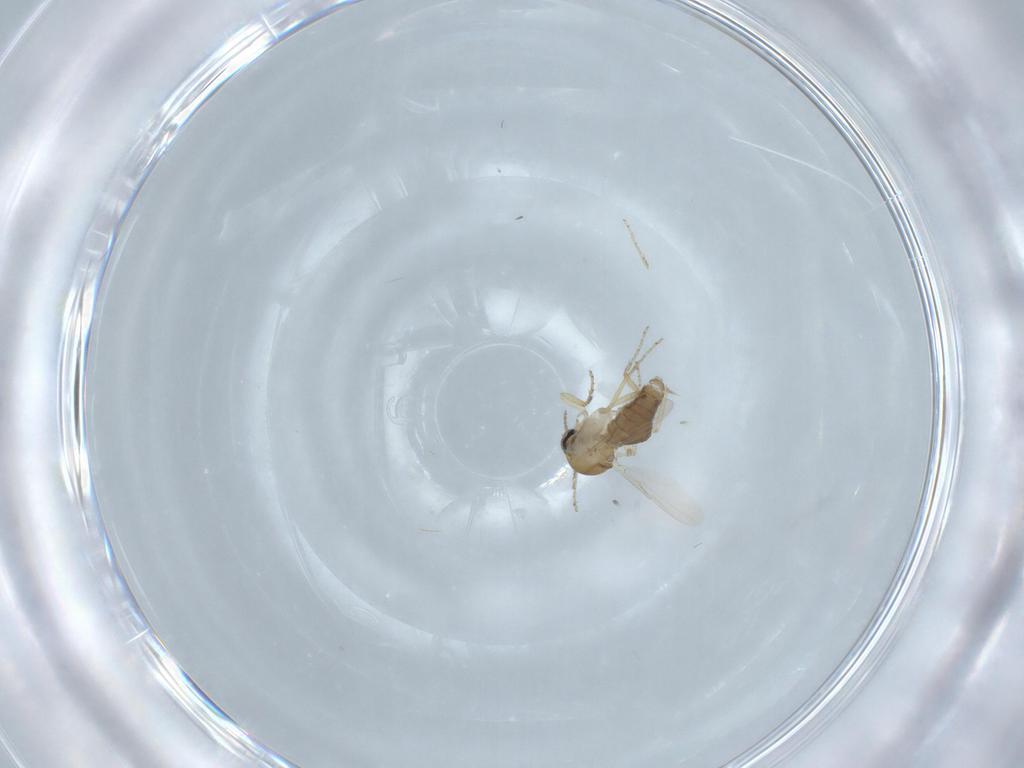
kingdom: Animalia
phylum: Arthropoda
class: Insecta
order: Diptera
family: Ceratopogonidae
